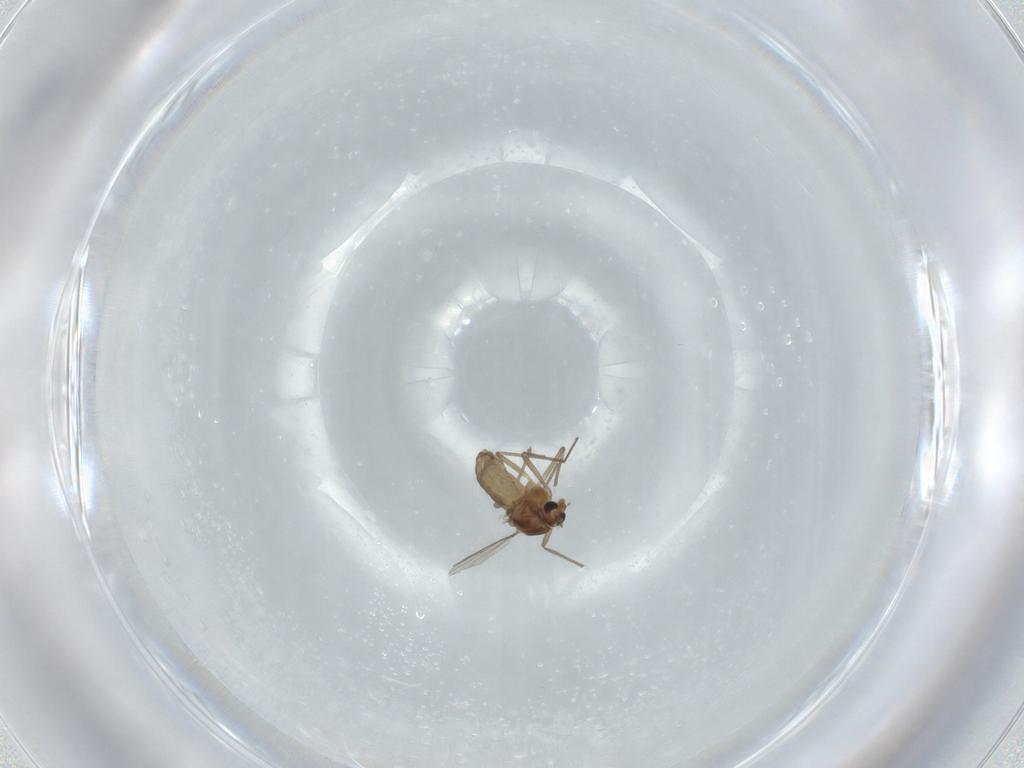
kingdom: Animalia
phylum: Arthropoda
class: Insecta
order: Diptera
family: Chironomidae
